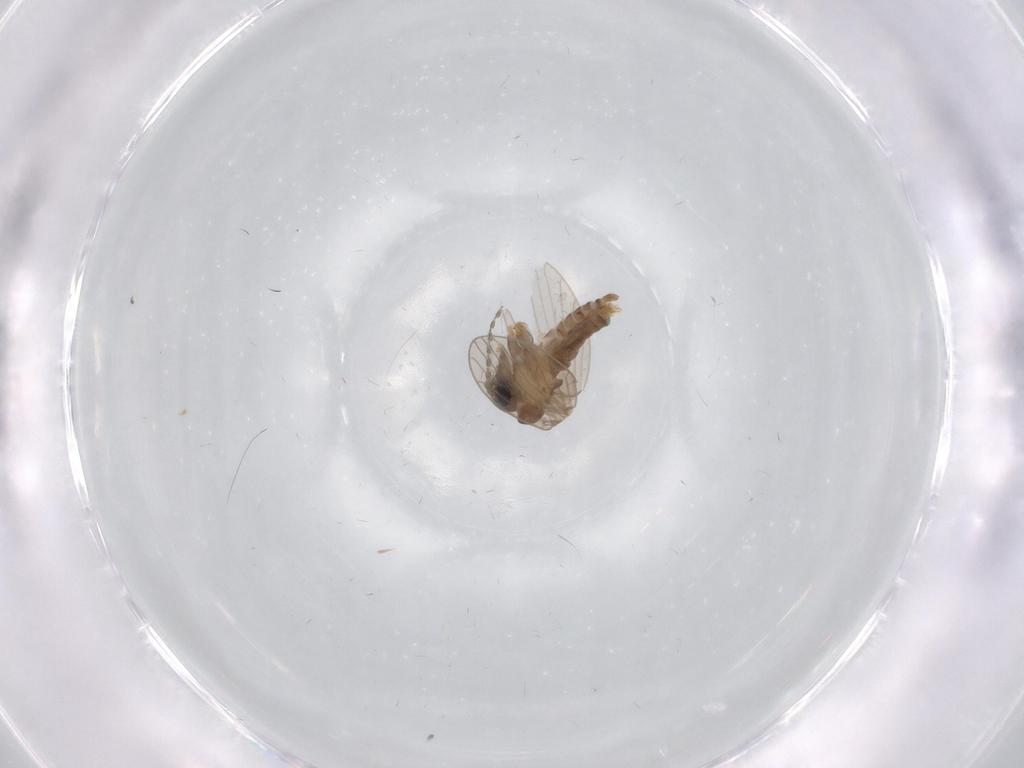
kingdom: Animalia
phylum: Arthropoda
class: Insecta
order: Diptera
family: Psychodidae
